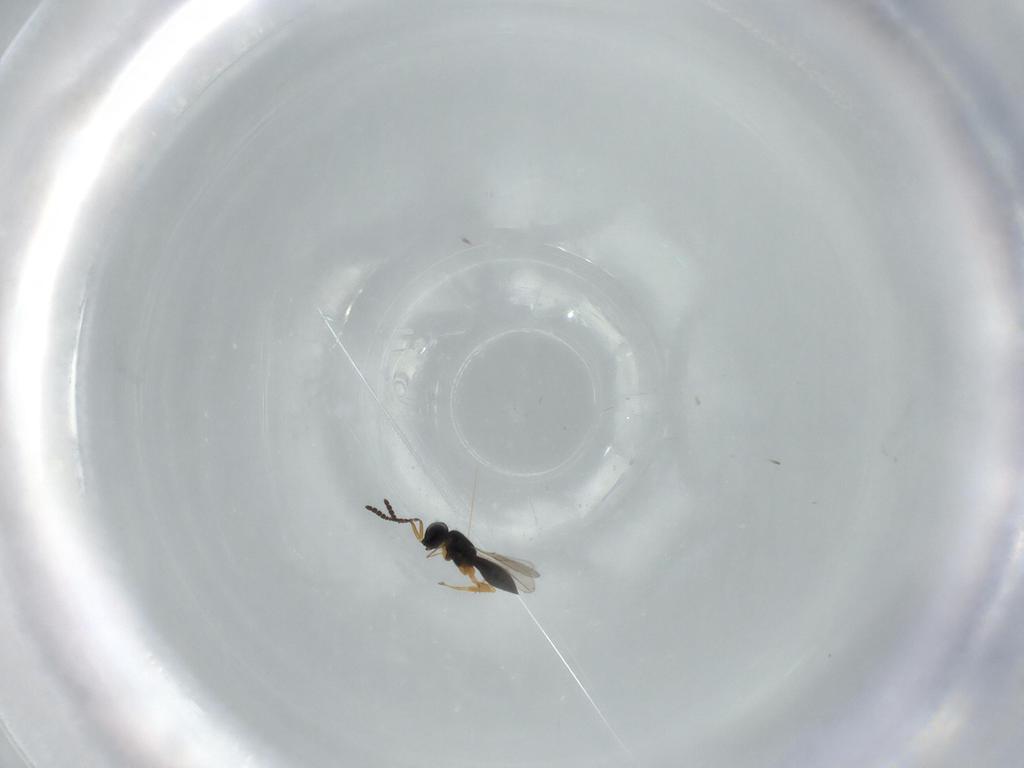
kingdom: Animalia
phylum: Arthropoda
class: Insecta
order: Hymenoptera
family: Scelionidae
